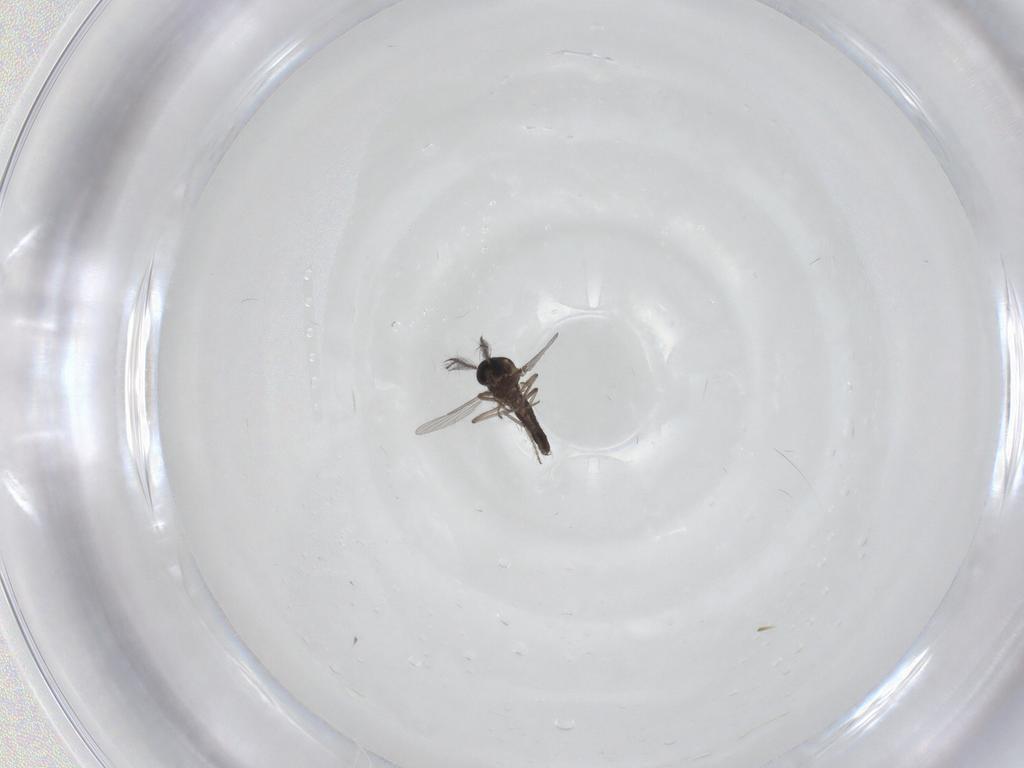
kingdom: Animalia
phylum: Arthropoda
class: Insecta
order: Diptera
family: Ceratopogonidae
